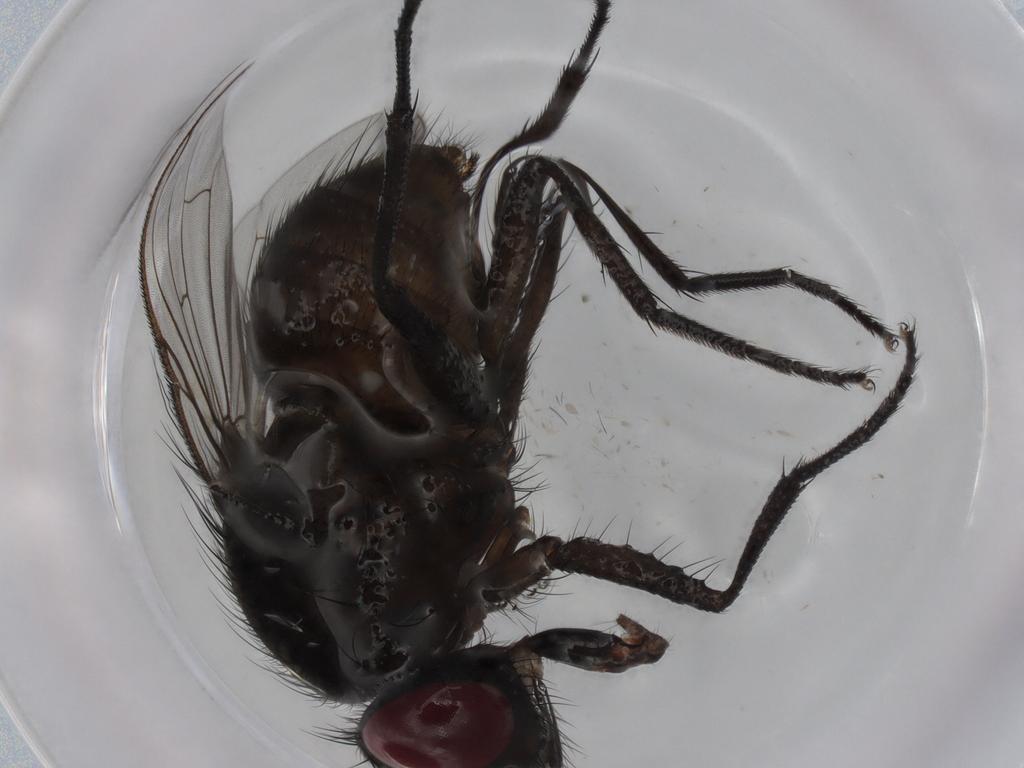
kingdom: Animalia
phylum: Arthropoda
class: Insecta
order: Diptera
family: Muscidae
